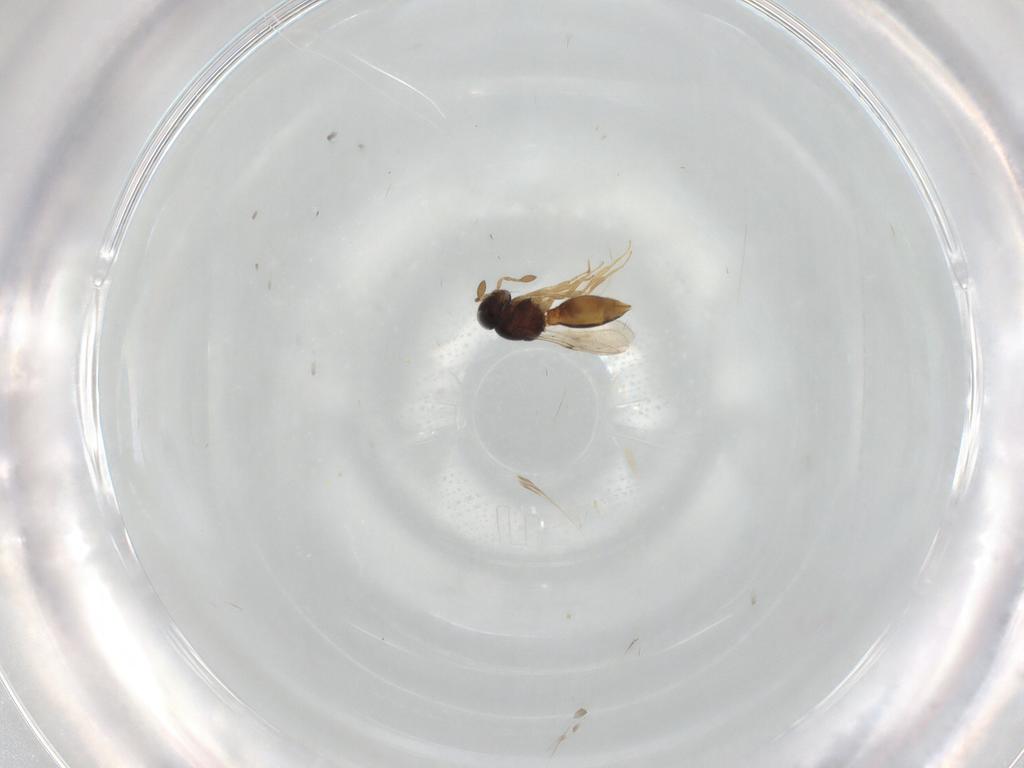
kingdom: Animalia
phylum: Arthropoda
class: Insecta
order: Hymenoptera
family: Scelionidae
